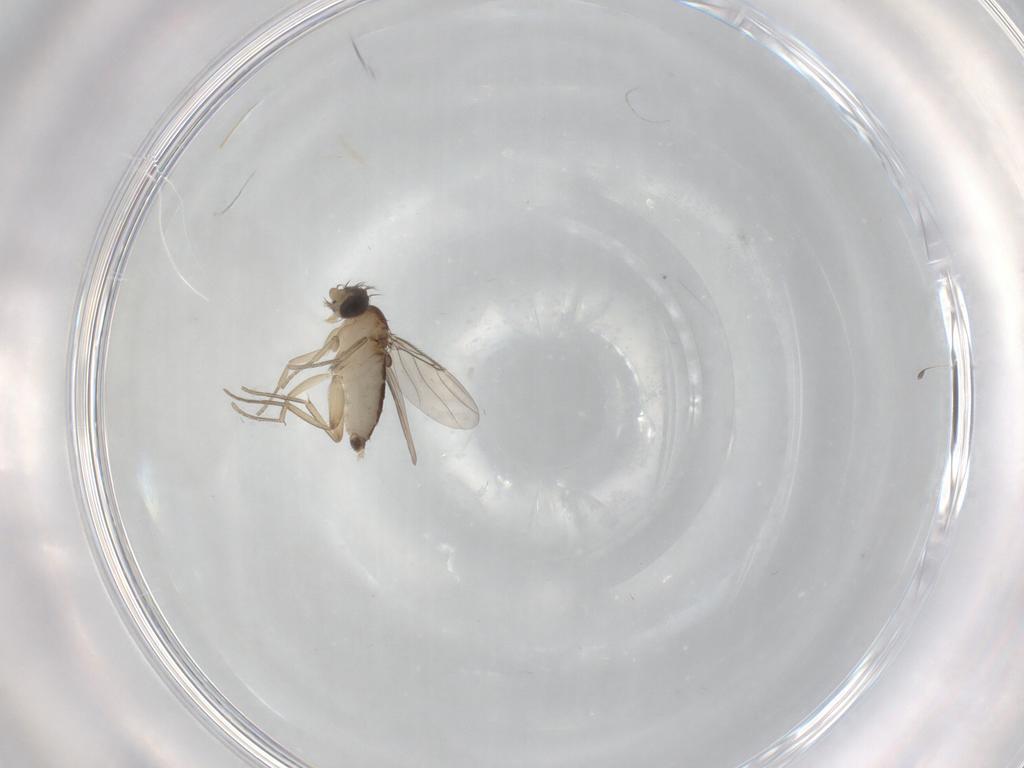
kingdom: Animalia
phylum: Arthropoda
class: Insecta
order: Diptera
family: Phoridae
